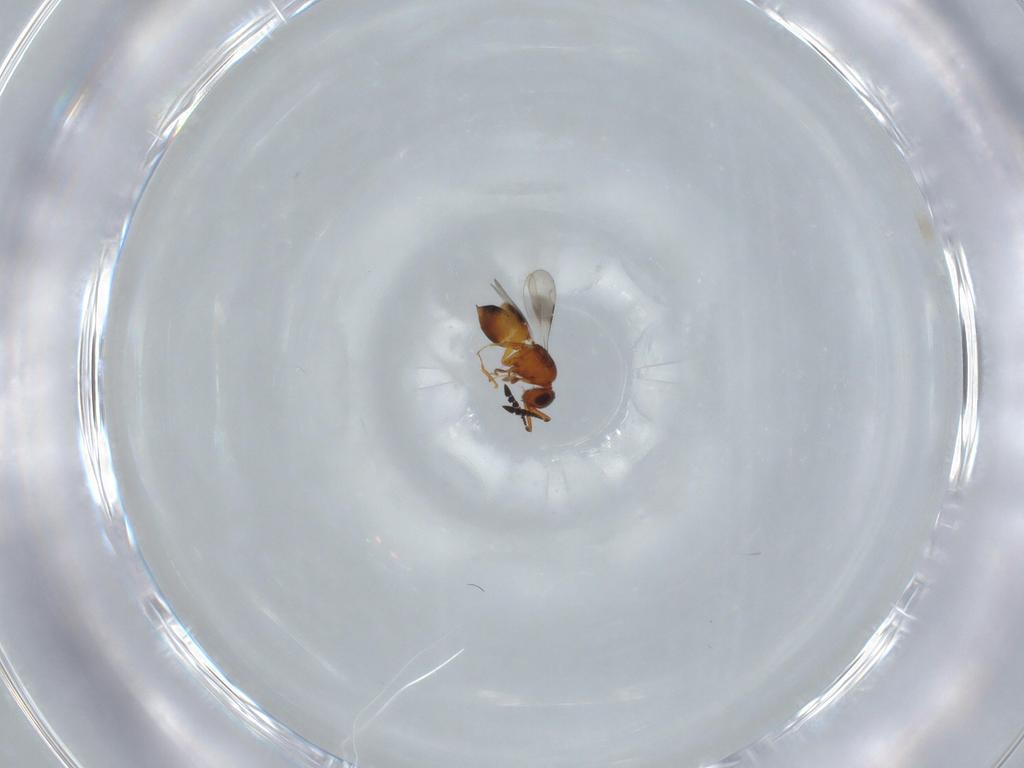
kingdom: Animalia
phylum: Arthropoda
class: Insecta
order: Hymenoptera
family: Ceraphronidae
